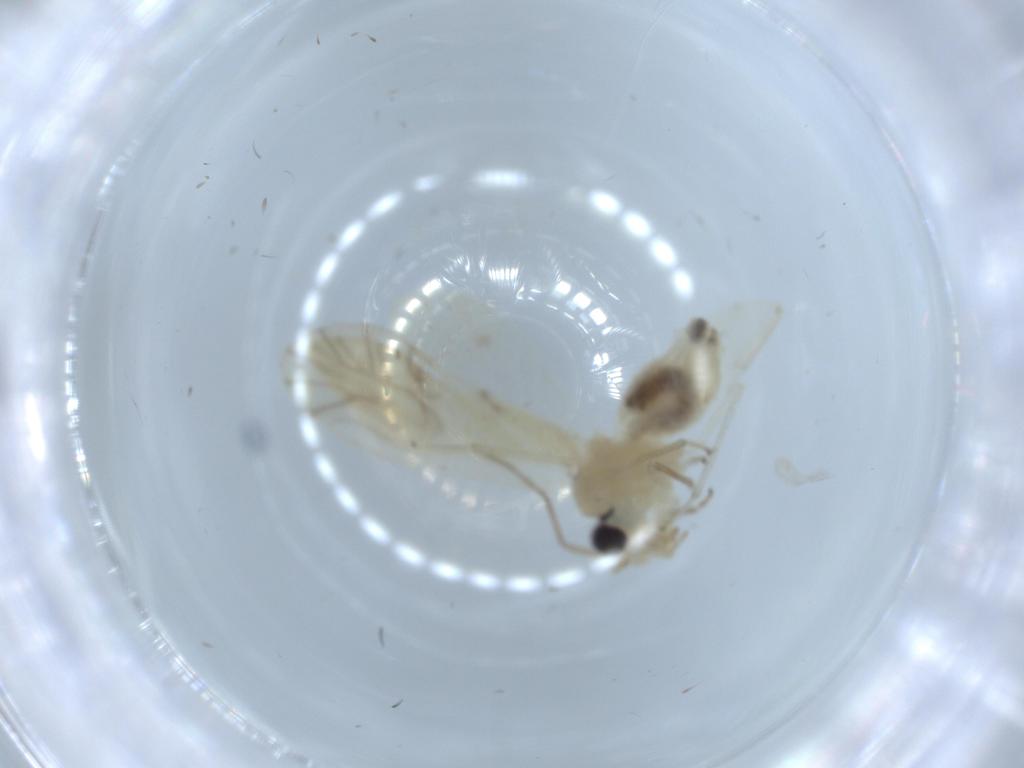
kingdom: Animalia
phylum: Arthropoda
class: Insecta
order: Psocodea
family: Caeciliusidae
